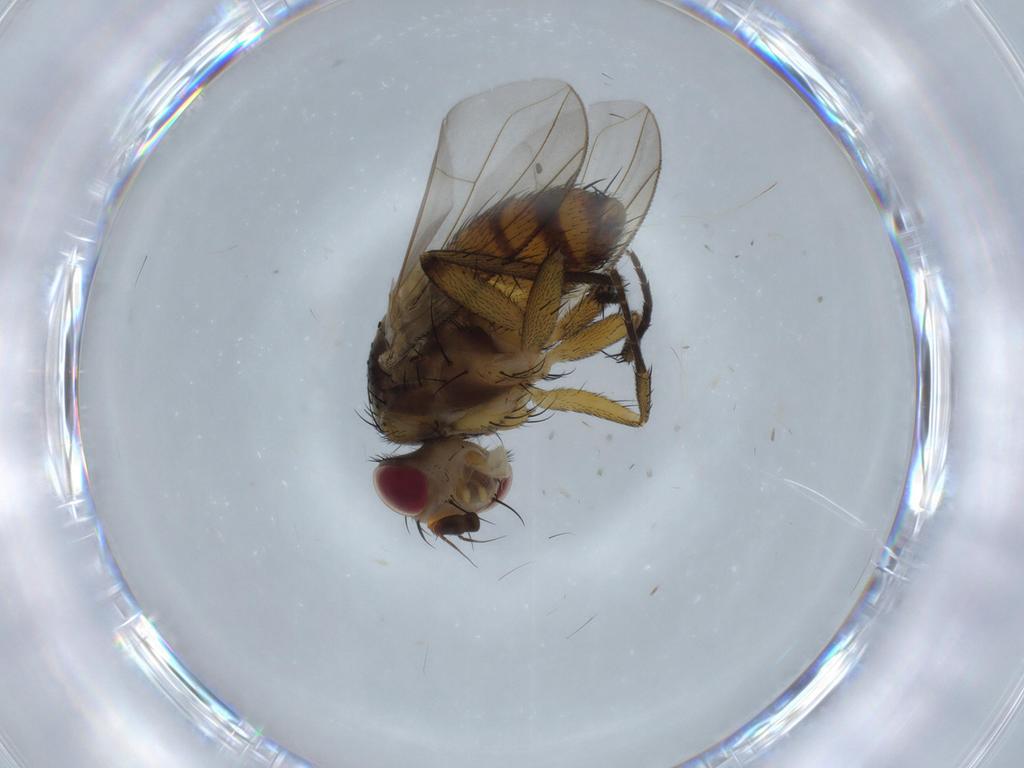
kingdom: Animalia
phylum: Arthropoda
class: Insecta
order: Diptera
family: Tachinidae
